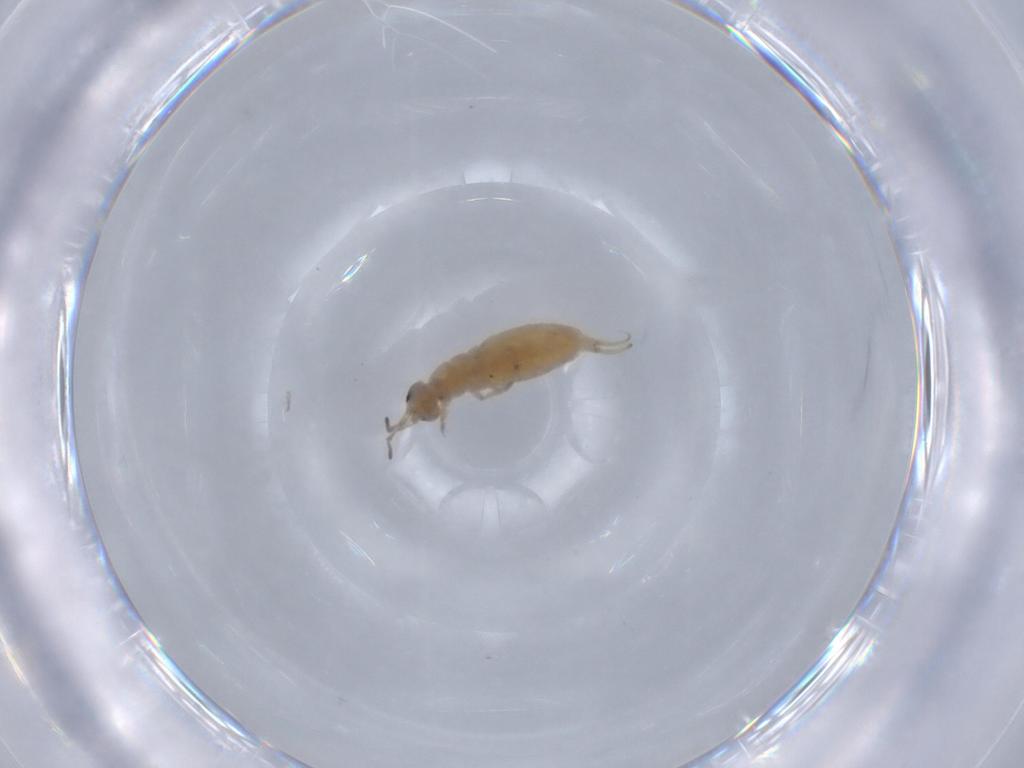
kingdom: Animalia
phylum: Arthropoda
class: Collembola
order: Entomobryomorpha
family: Isotomidae
